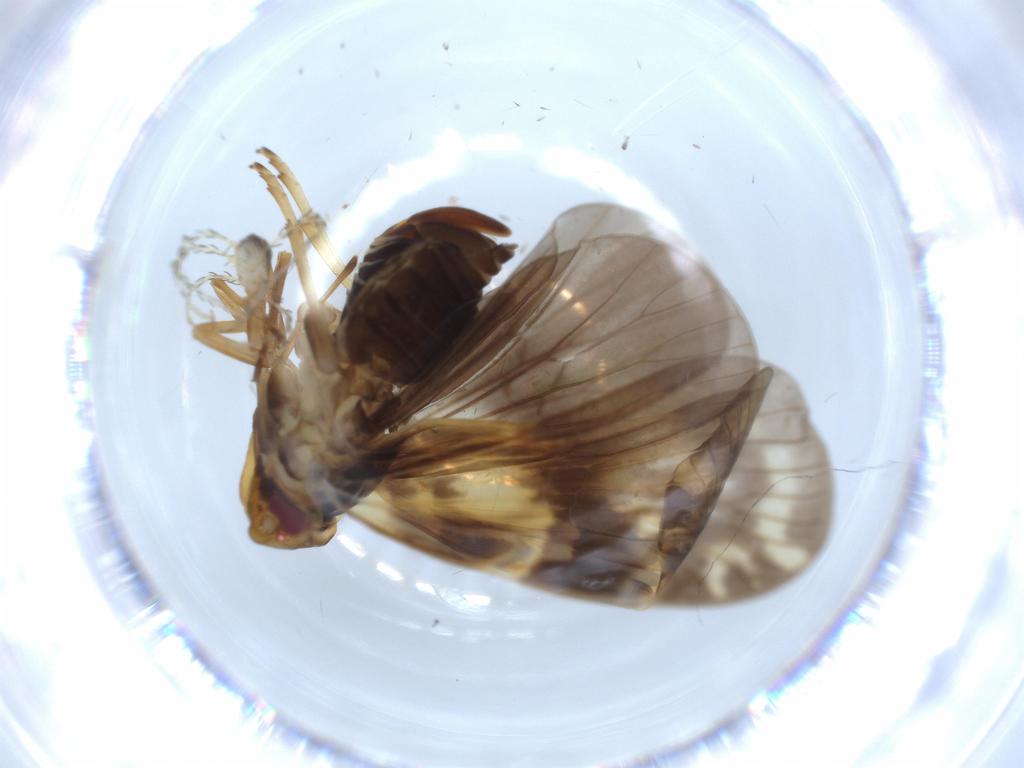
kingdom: Animalia
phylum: Arthropoda
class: Insecta
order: Hemiptera
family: Cixiidae
